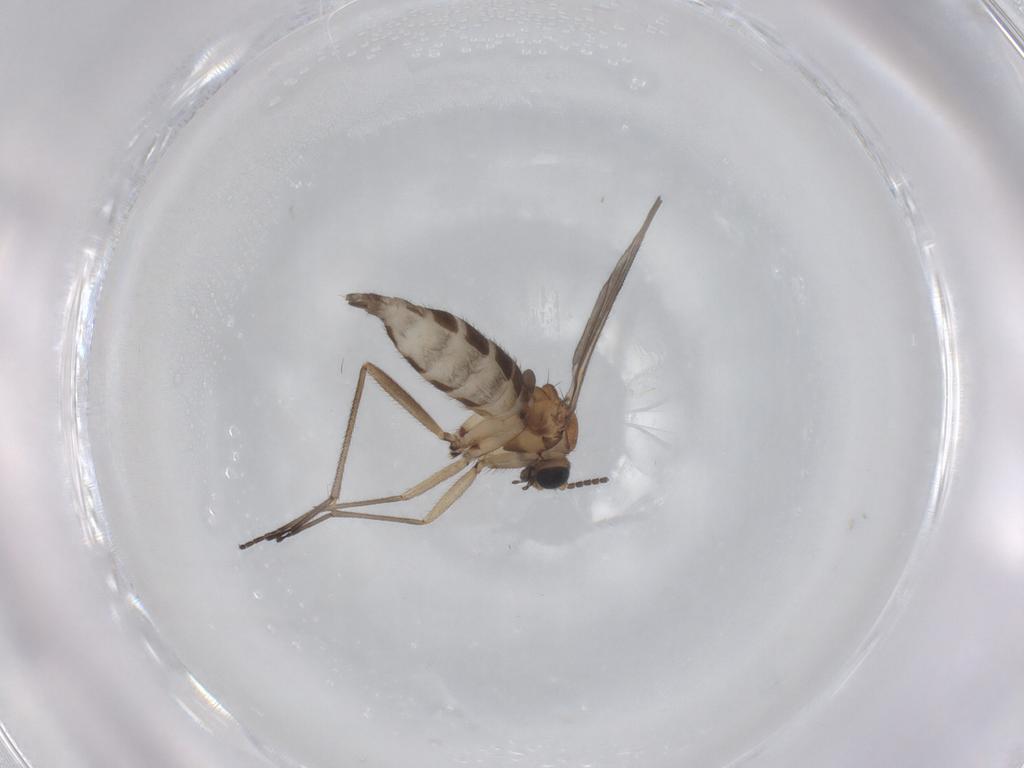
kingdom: Animalia
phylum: Arthropoda
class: Insecta
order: Diptera
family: Sciaridae
